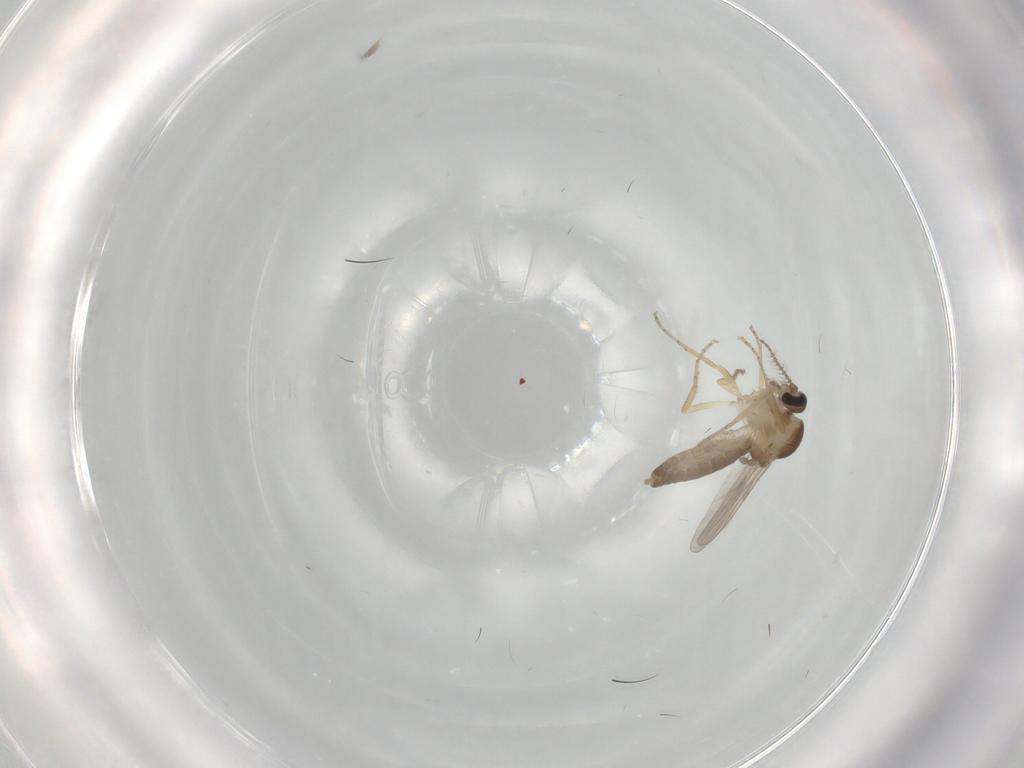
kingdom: Animalia
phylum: Arthropoda
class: Insecta
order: Diptera
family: Ceratopogonidae
